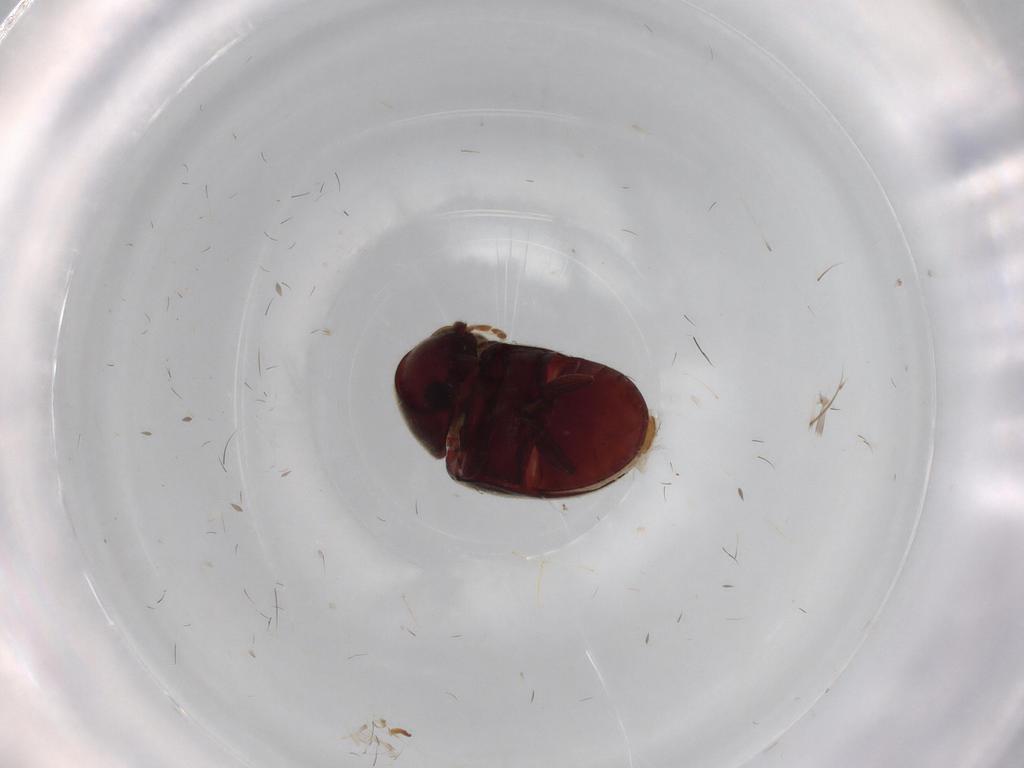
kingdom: Animalia
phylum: Arthropoda
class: Insecta
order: Coleoptera
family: Ptinidae
